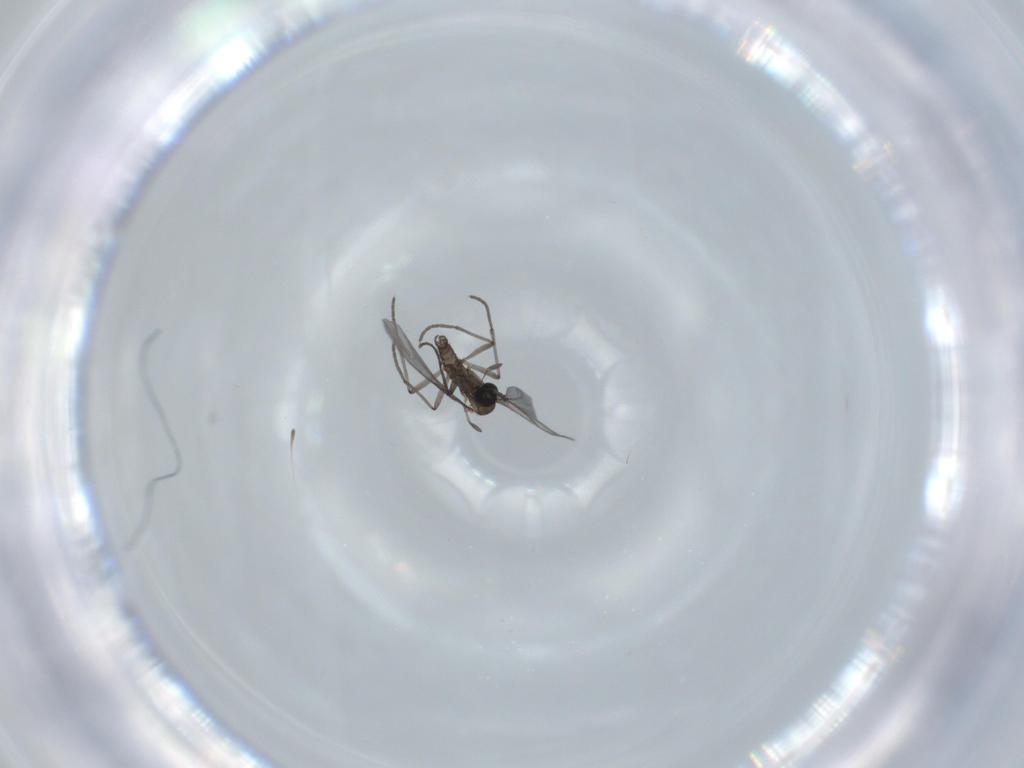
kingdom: Animalia
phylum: Arthropoda
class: Insecta
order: Diptera
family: Sciaridae
